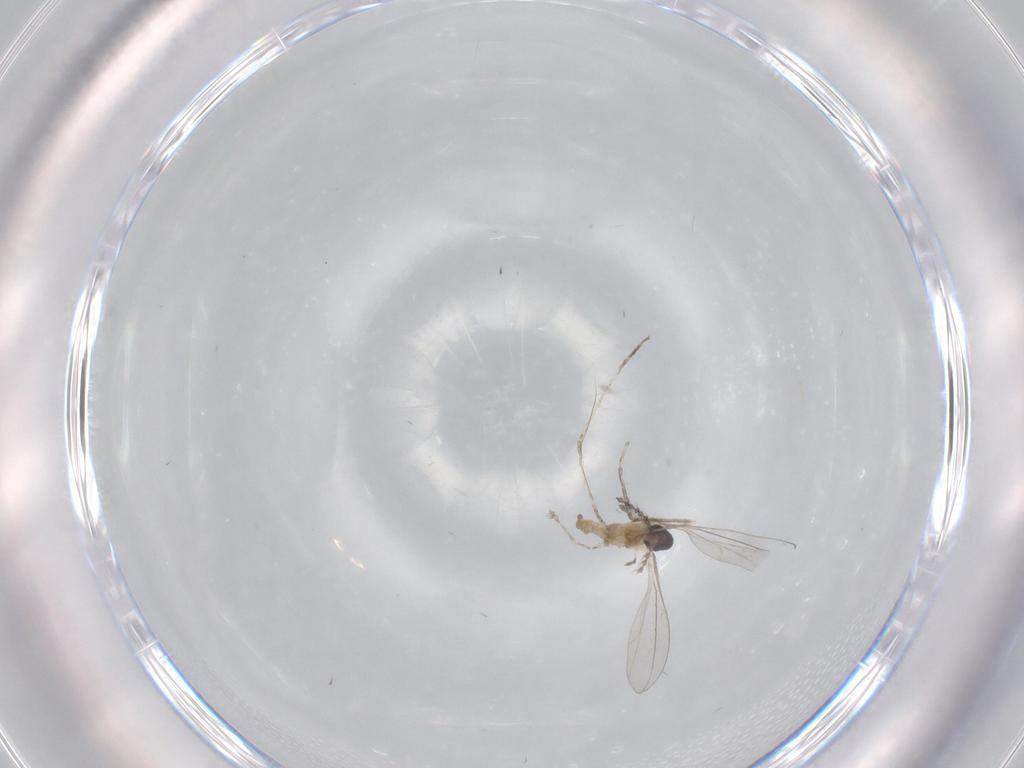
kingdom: Animalia
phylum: Arthropoda
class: Insecta
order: Diptera
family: Cecidomyiidae
